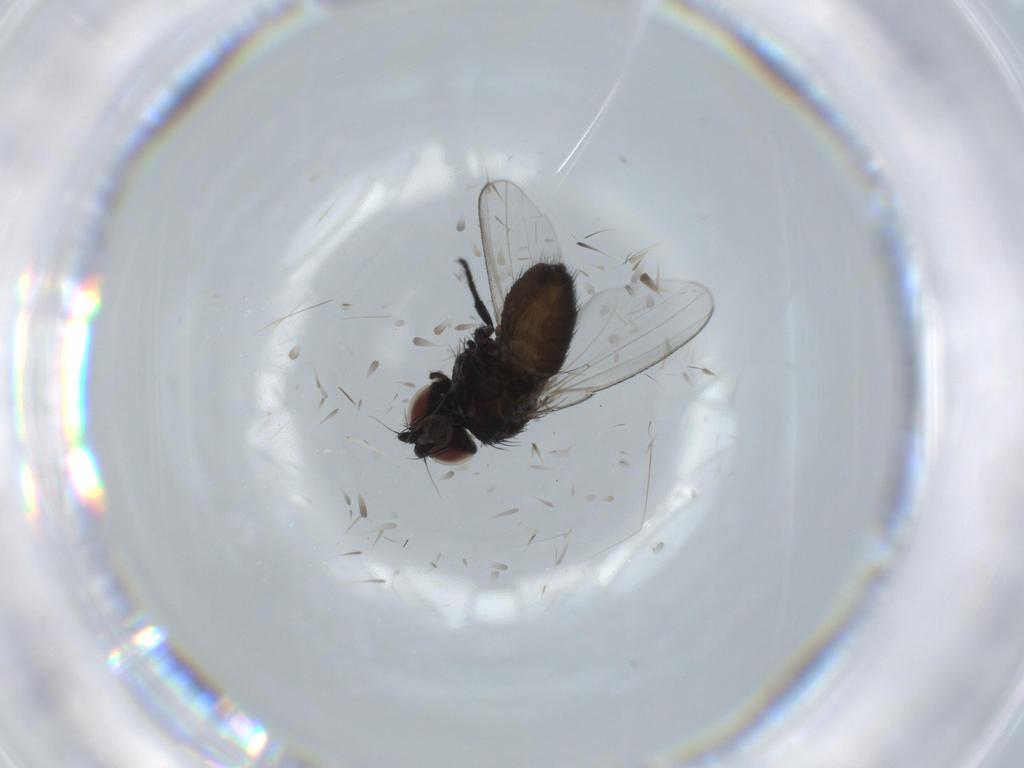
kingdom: Animalia
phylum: Arthropoda
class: Insecta
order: Diptera
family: Milichiidae
